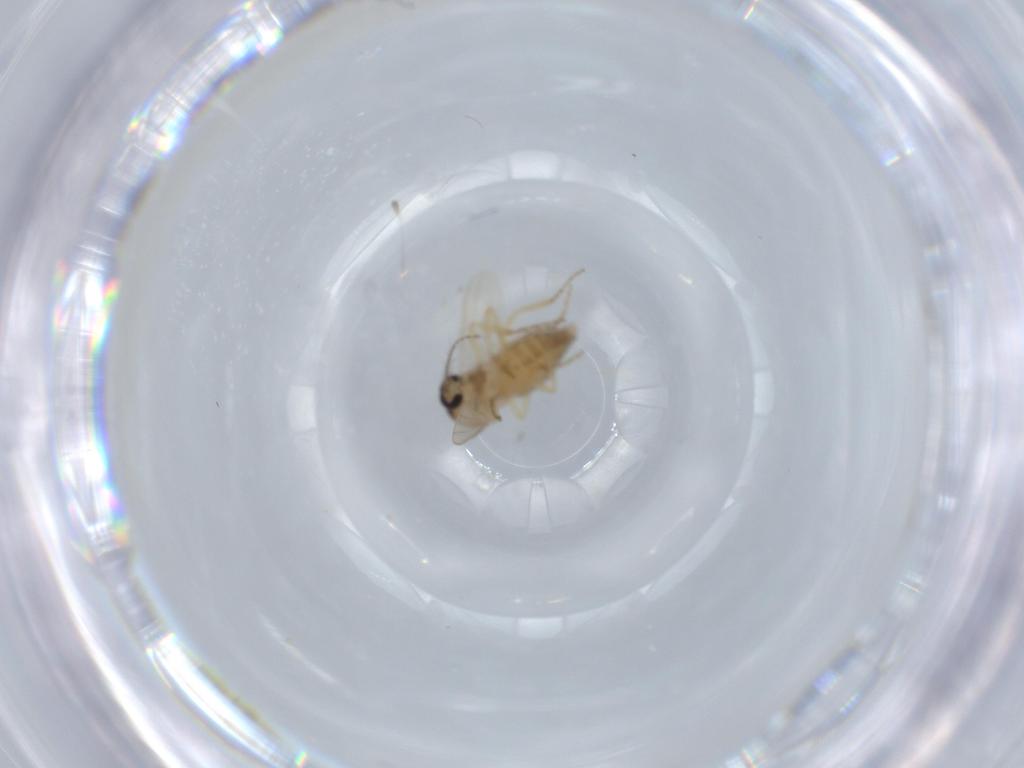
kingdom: Animalia
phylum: Arthropoda
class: Insecta
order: Diptera
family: Ceratopogonidae
